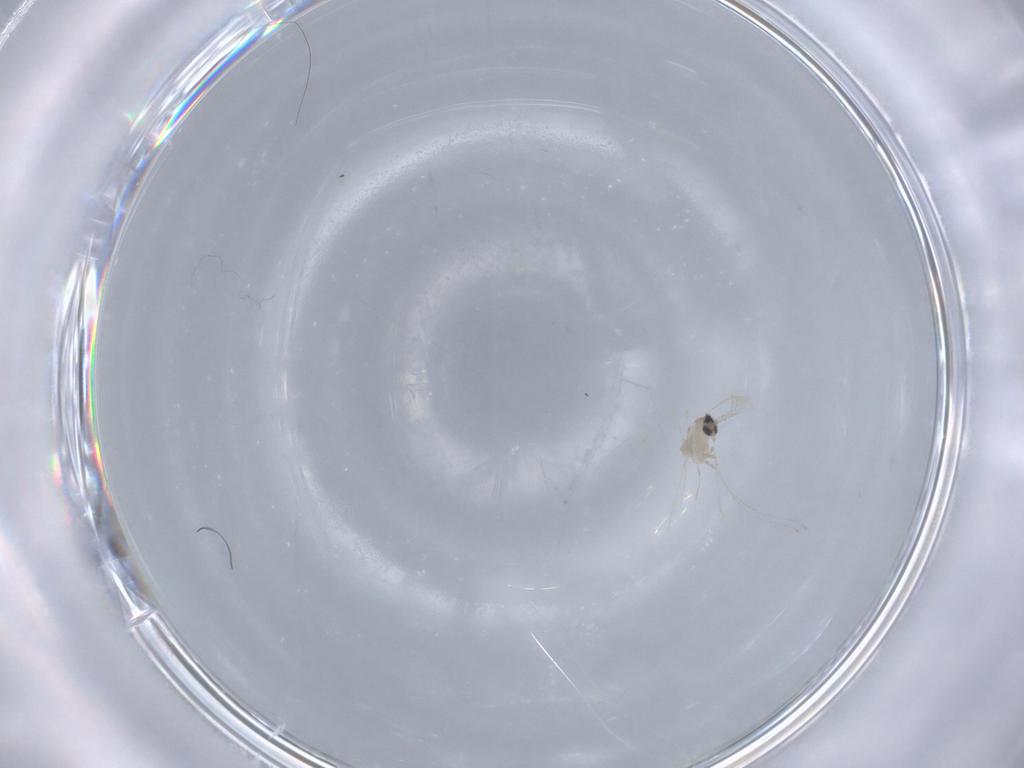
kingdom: Animalia
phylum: Arthropoda
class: Insecta
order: Diptera
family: Cecidomyiidae
